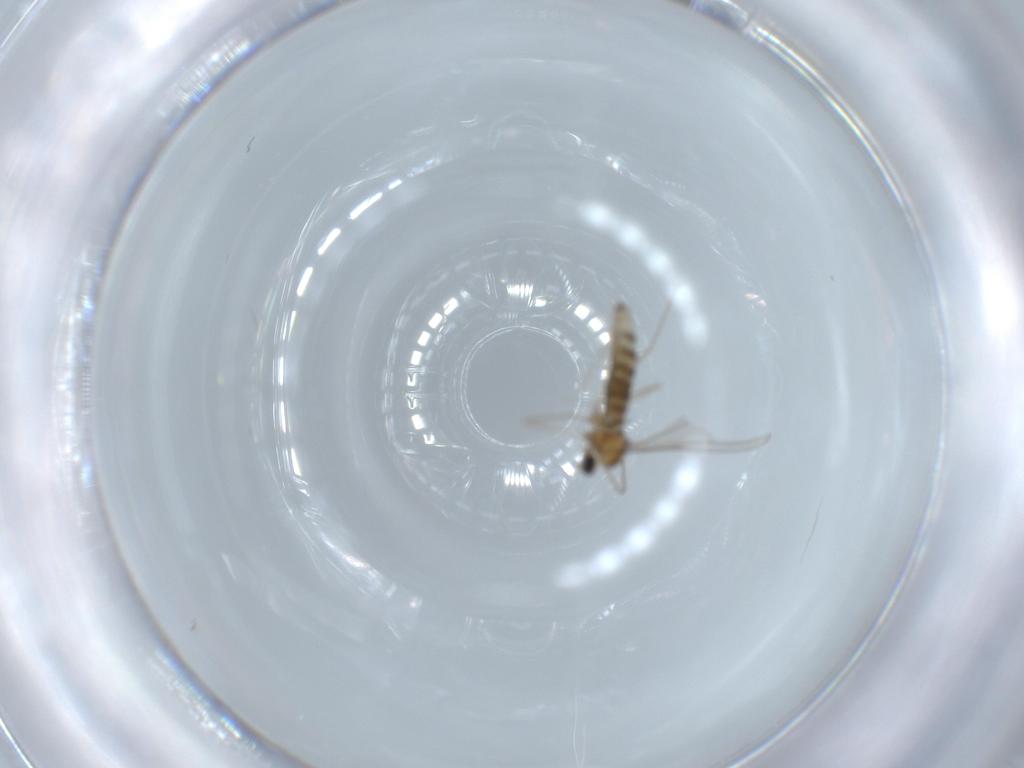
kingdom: Animalia
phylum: Arthropoda
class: Insecta
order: Diptera
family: Cecidomyiidae
